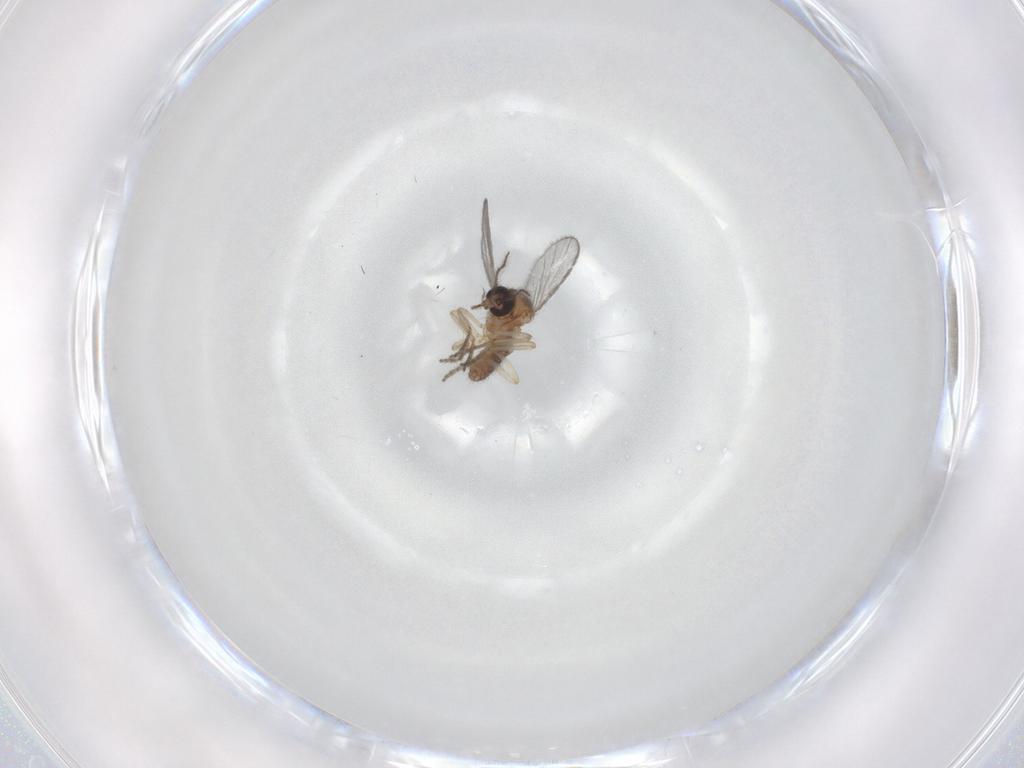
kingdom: Animalia
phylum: Arthropoda
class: Insecta
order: Diptera
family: Ceratopogonidae
